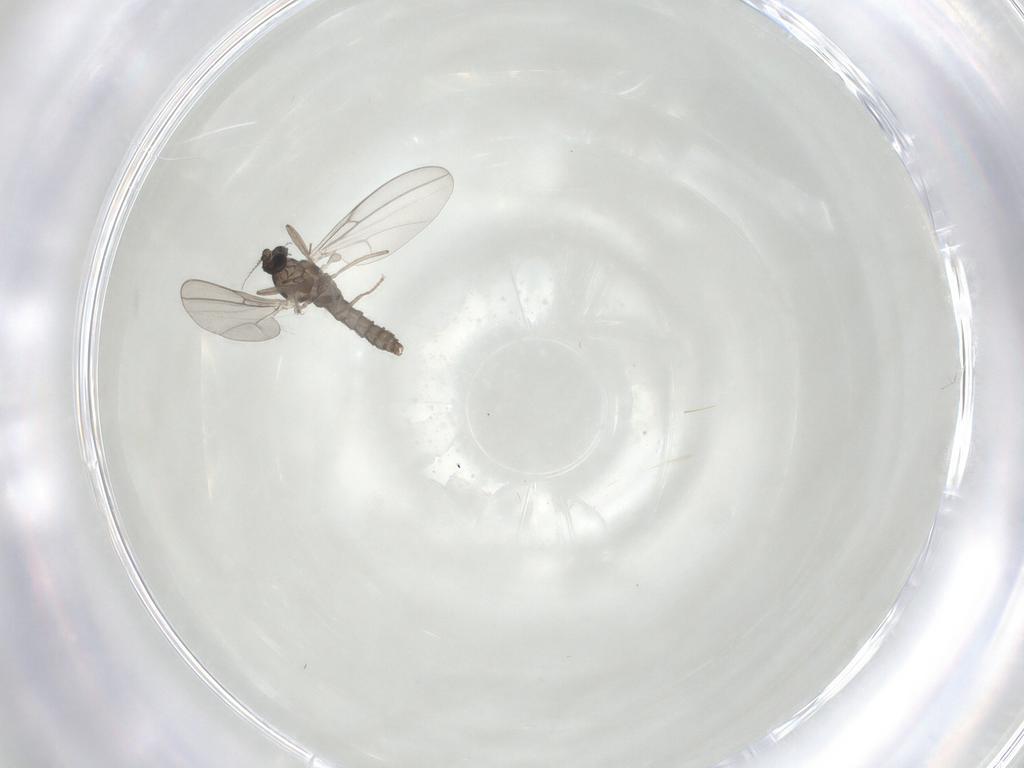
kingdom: Animalia
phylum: Arthropoda
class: Insecta
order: Diptera
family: Cecidomyiidae
